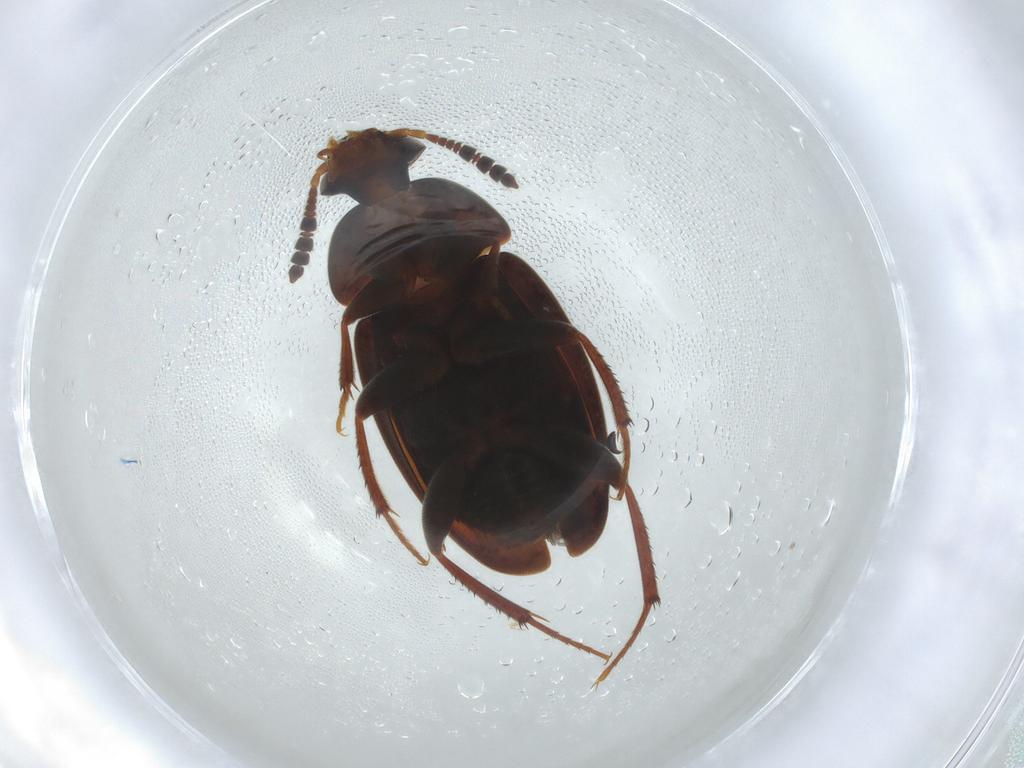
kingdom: Animalia
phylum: Arthropoda
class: Insecta
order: Coleoptera
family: Leiodidae
